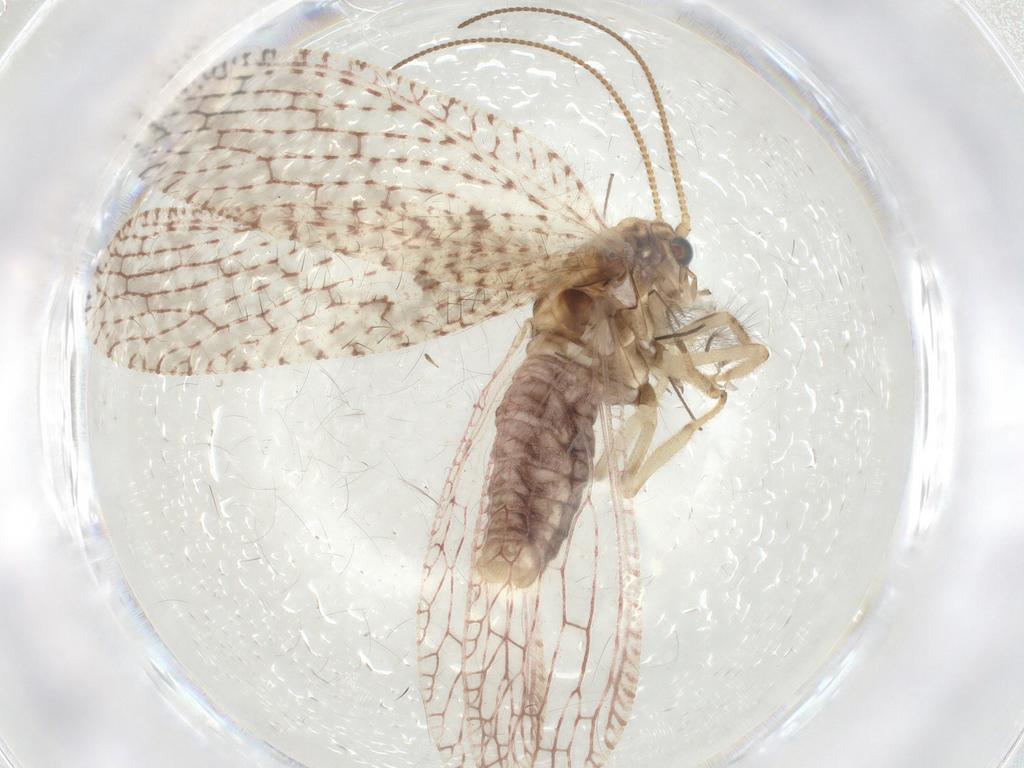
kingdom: Animalia
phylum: Arthropoda
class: Insecta
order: Neuroptera
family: Hemerobiidae
